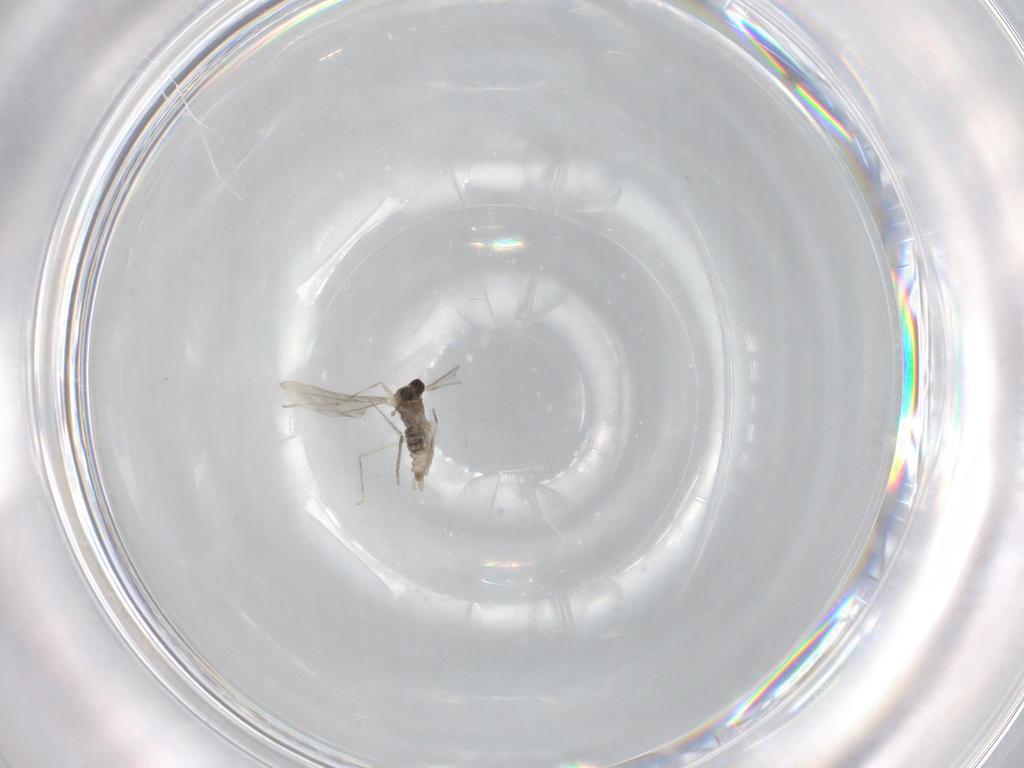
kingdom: Animalia
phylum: Arthropoda
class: Insecta
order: Diptera
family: Cecidomyiidae
